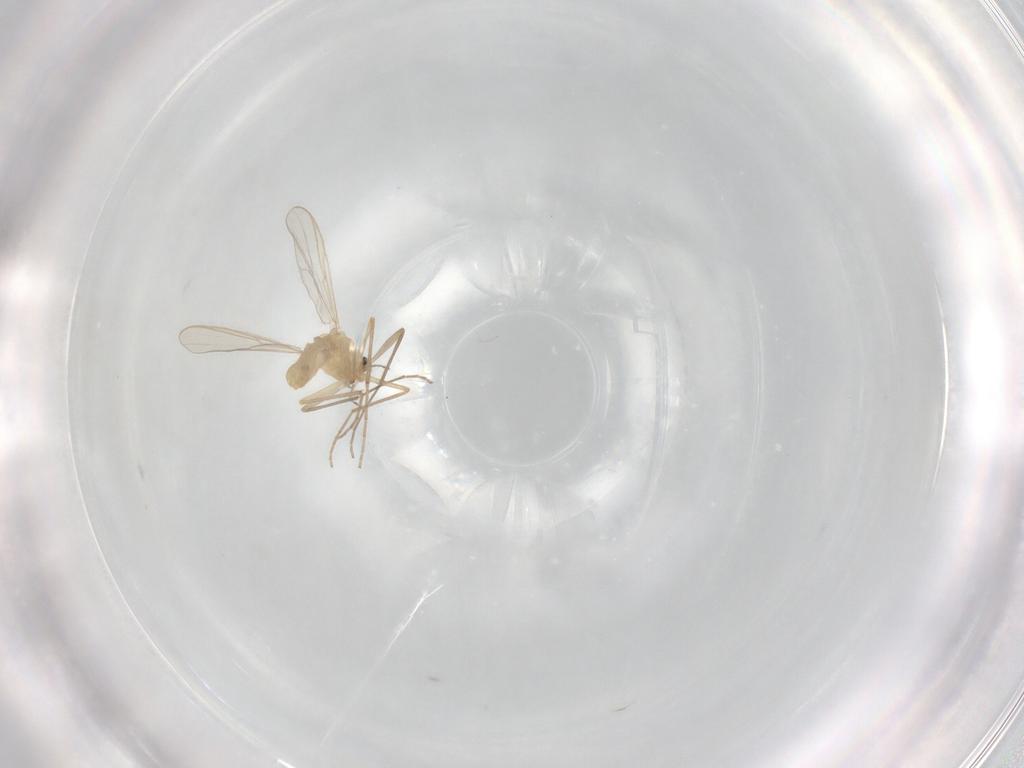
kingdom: Animalia
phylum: Arthropoda
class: Insecta
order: Diptera
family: Chironomidae
